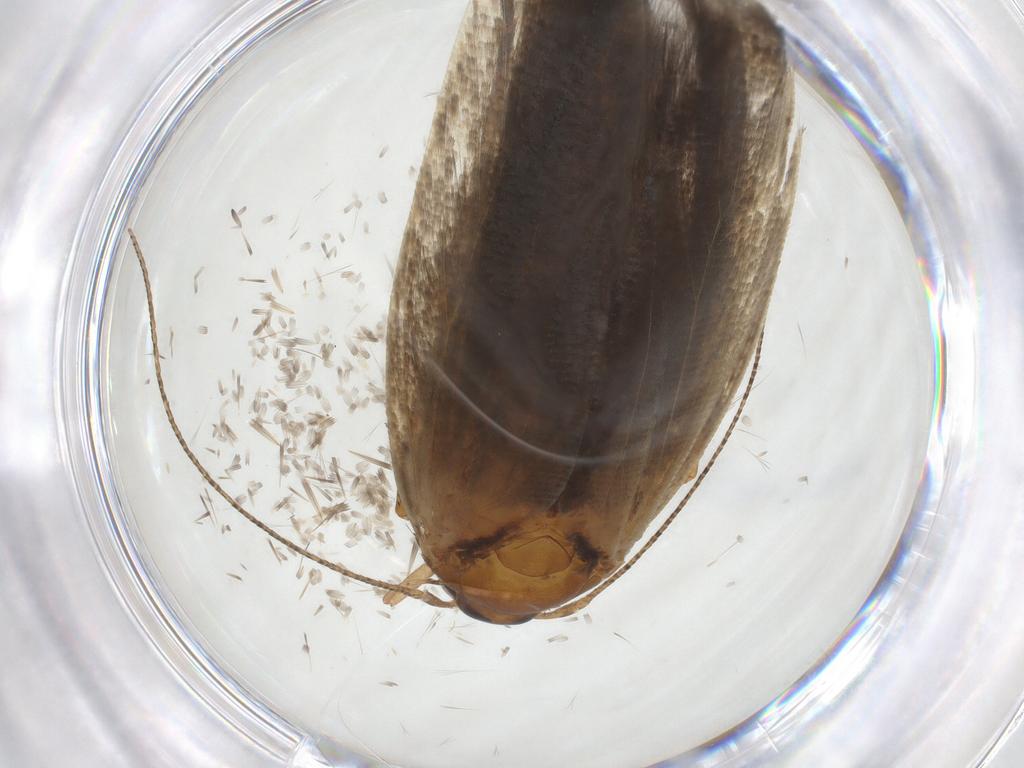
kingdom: Animalia
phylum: Arthropoda
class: Insecta
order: Lepidoptera
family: Gelechiidae
